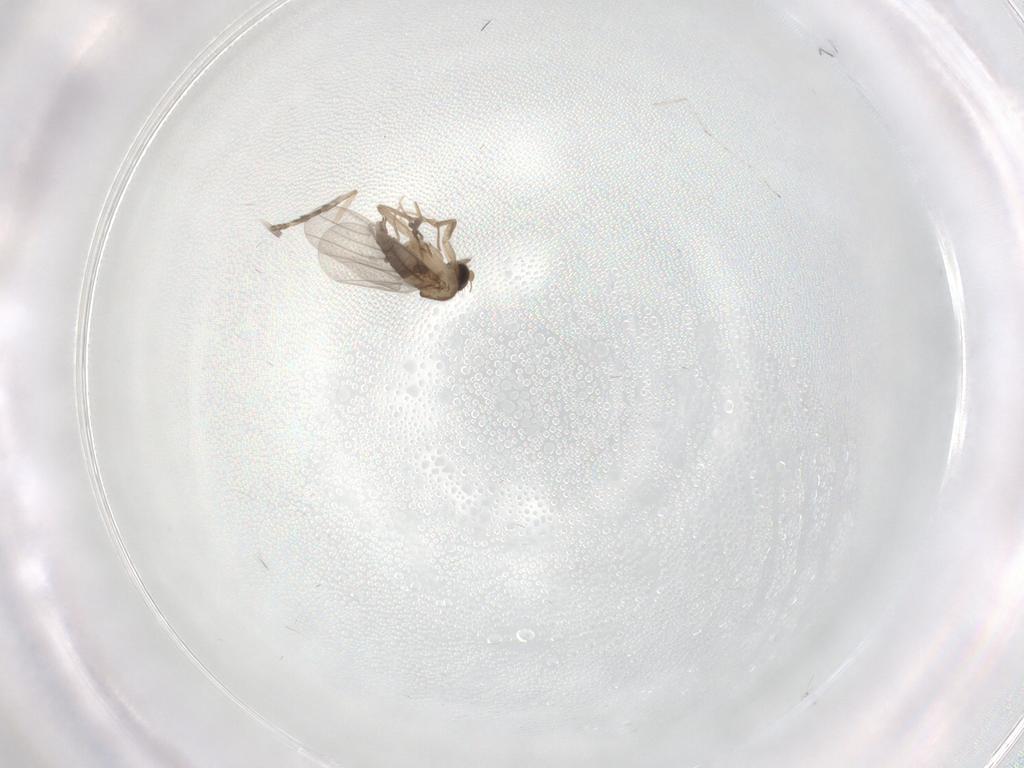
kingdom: Animalia
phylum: Arthropoda
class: Insecta
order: Diptera
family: Psychodidae
